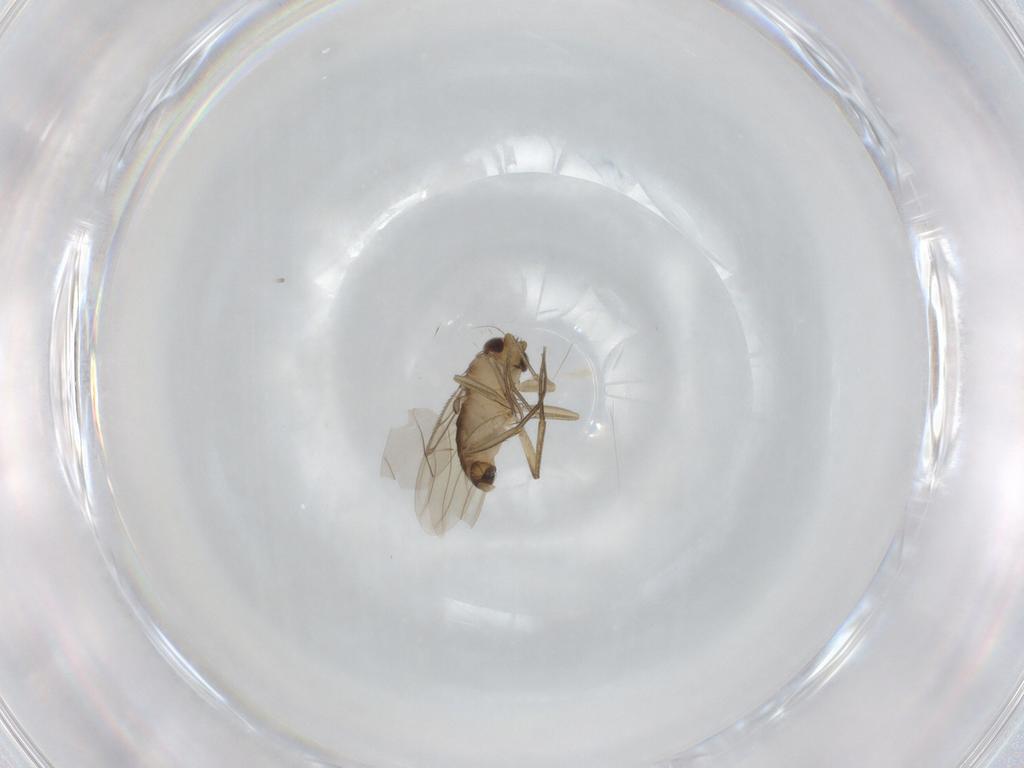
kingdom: Animalia
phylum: Arthropoda
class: Insecta
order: Diptera
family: Phoridae
